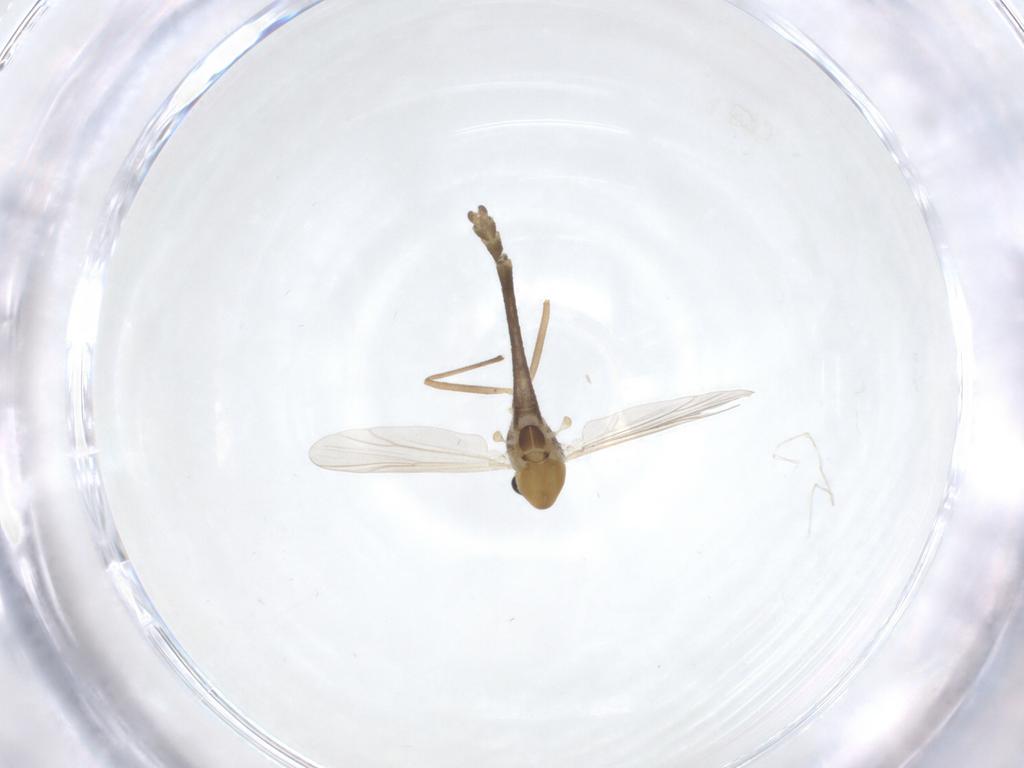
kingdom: Animalia
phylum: Arthropoda
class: Insecta
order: Diptera
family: Chironomidae
